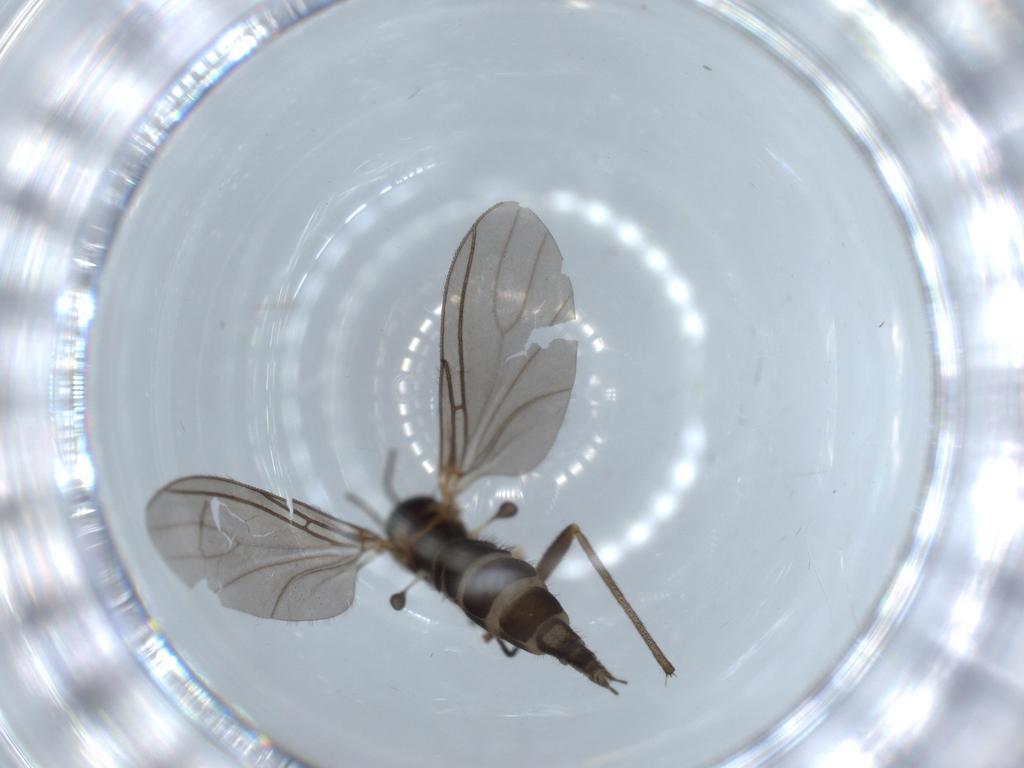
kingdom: Animalia
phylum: Arthropoda
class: Insecta
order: Diptera
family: Sciaridae
